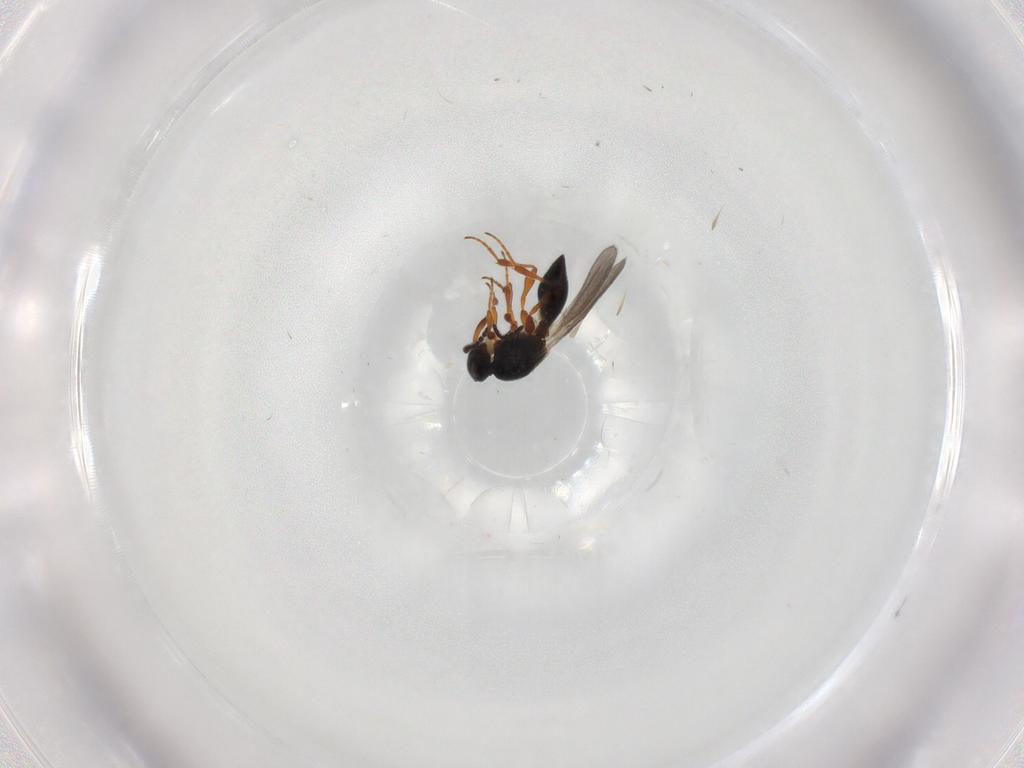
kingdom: Animalia
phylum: Arthropoda
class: Insecta
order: Hymenoptera
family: Platygastridae
